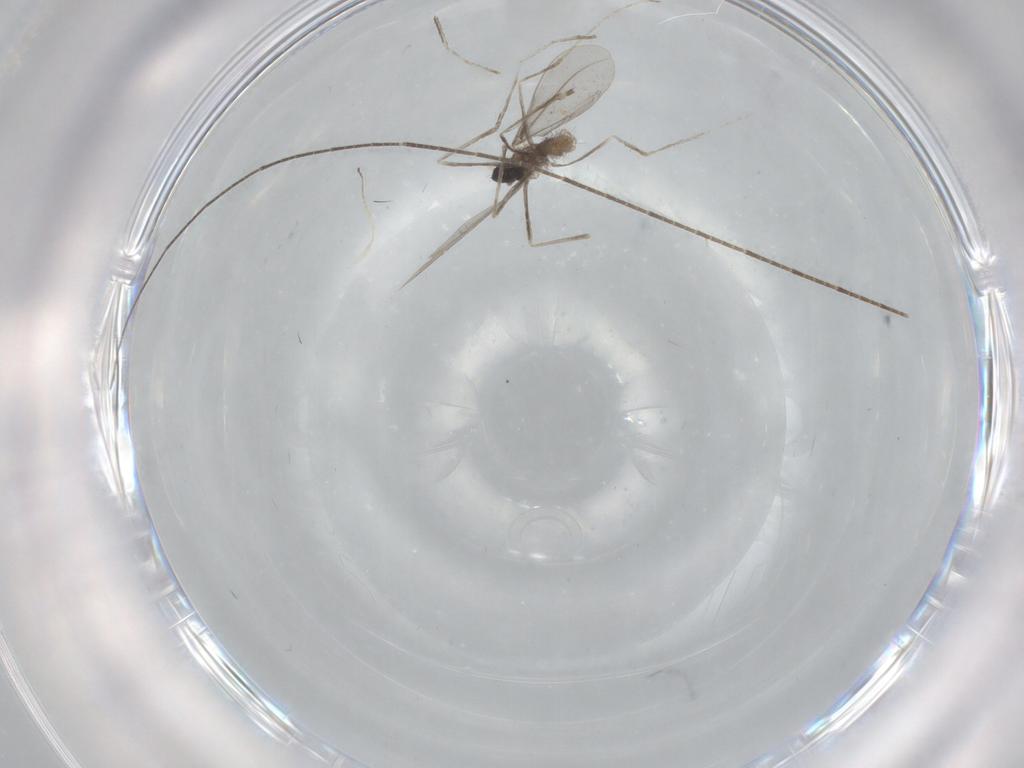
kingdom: Animalia
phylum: Arthropoda
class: Insecta
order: Diptera
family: Cecidomyiidae
